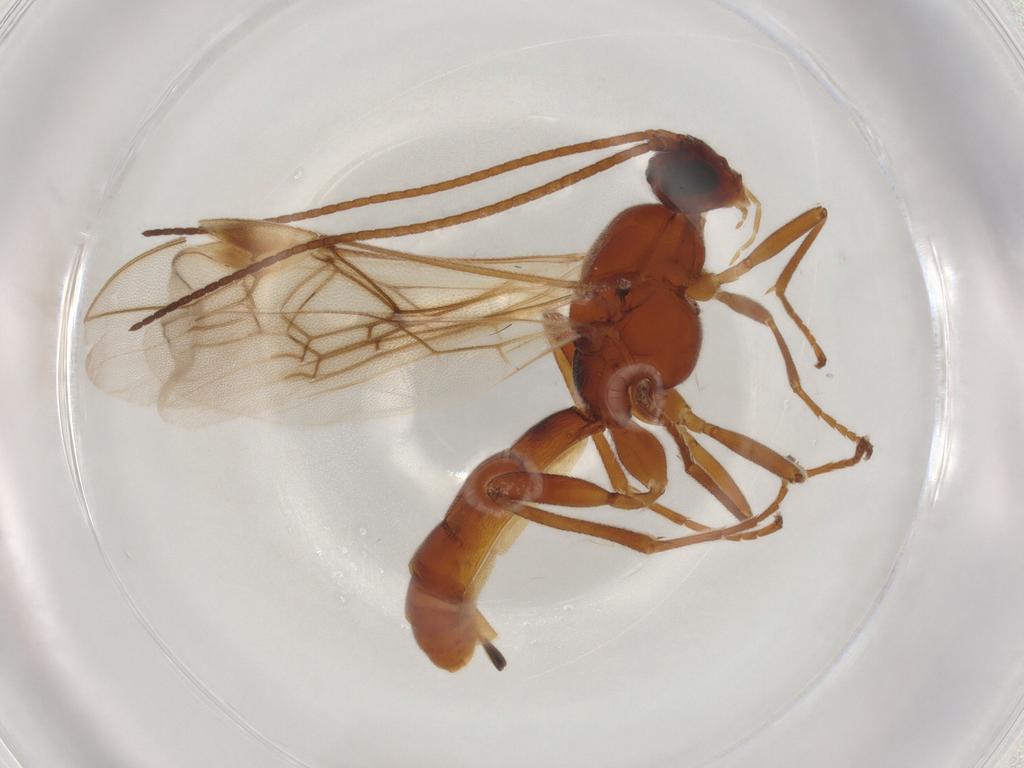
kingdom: Animalia
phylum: Arthropoda
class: Insecta
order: Hymenoptera
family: Braconidae
